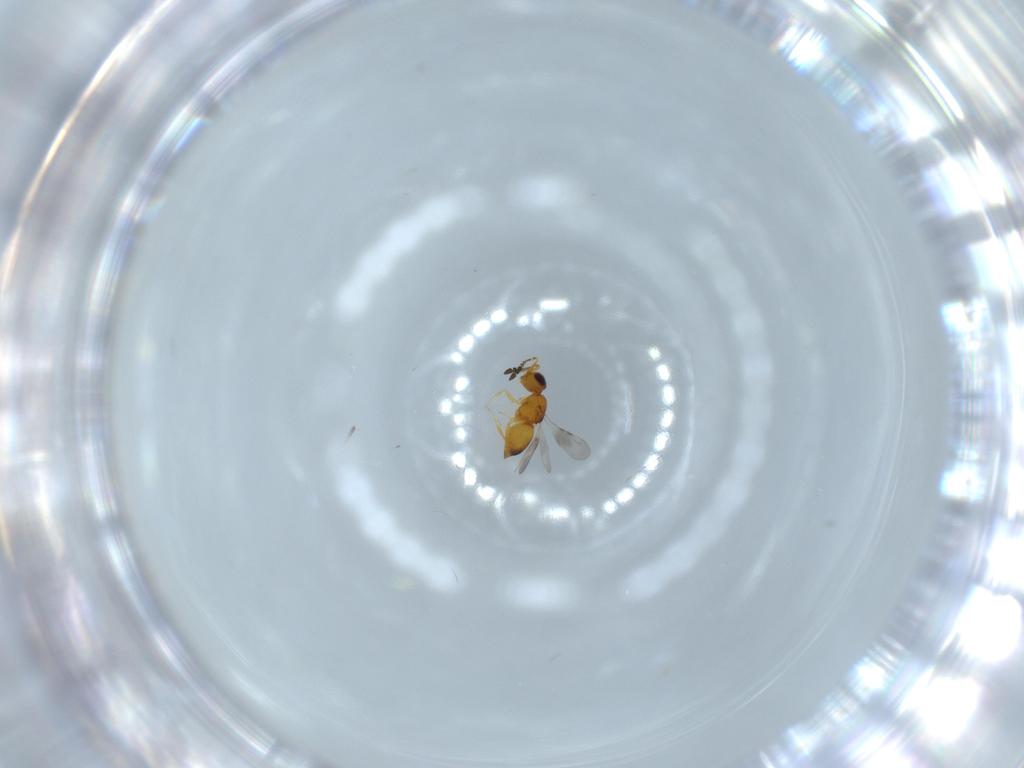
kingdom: Animalia
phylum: Arthropoda
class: Insecta
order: Hymenoptera
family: Ceraphronidae
